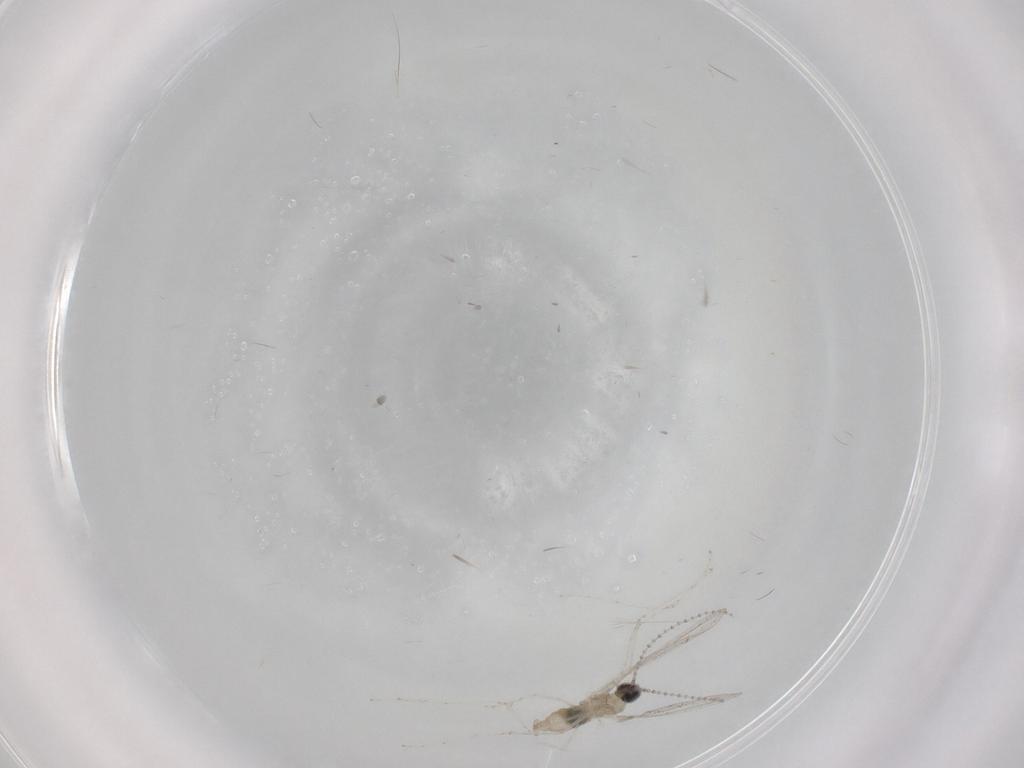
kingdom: Animalia
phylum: Arthropoda
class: Insecta
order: Diptera
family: Cecidomyiidae
